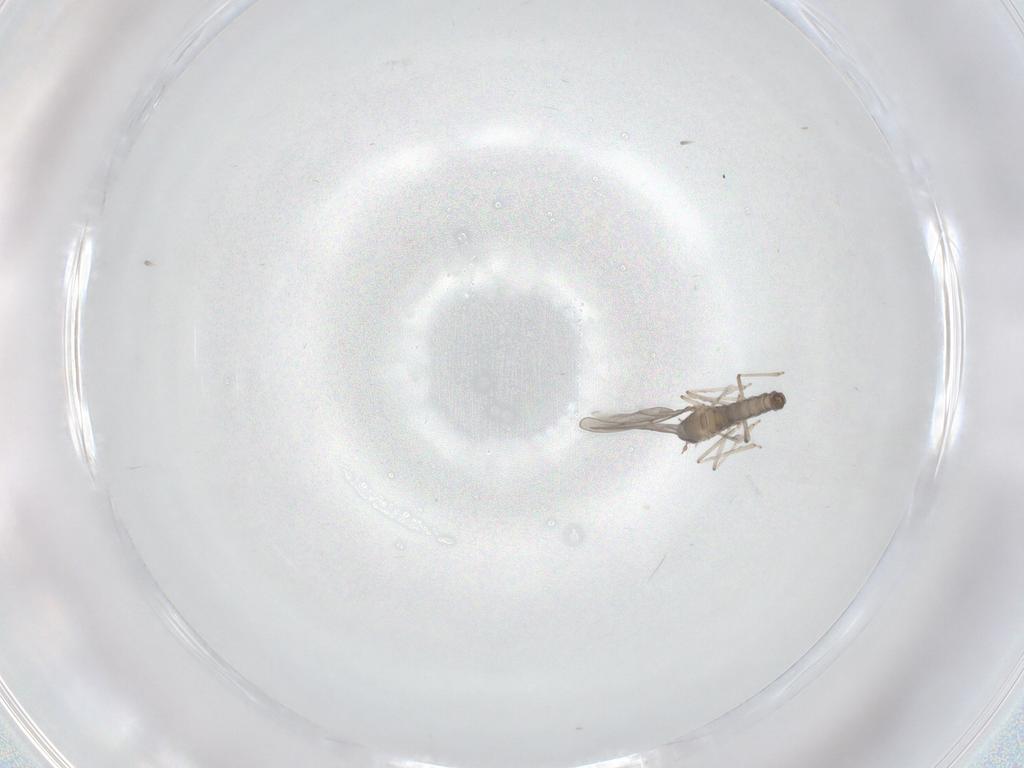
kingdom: Animalia
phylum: Arthropoda
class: Insecta
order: Diptera
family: Cecidomyiidae
